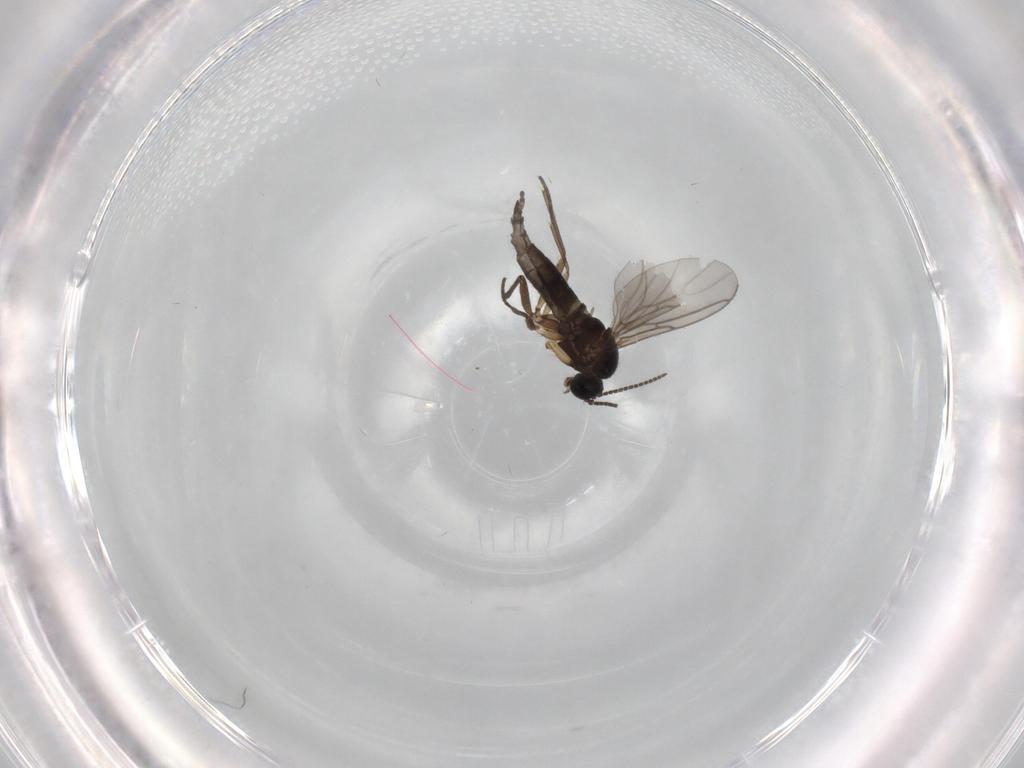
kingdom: Animalia
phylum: Arthropoda
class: Insecta
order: Diptera
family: Sciaridae
